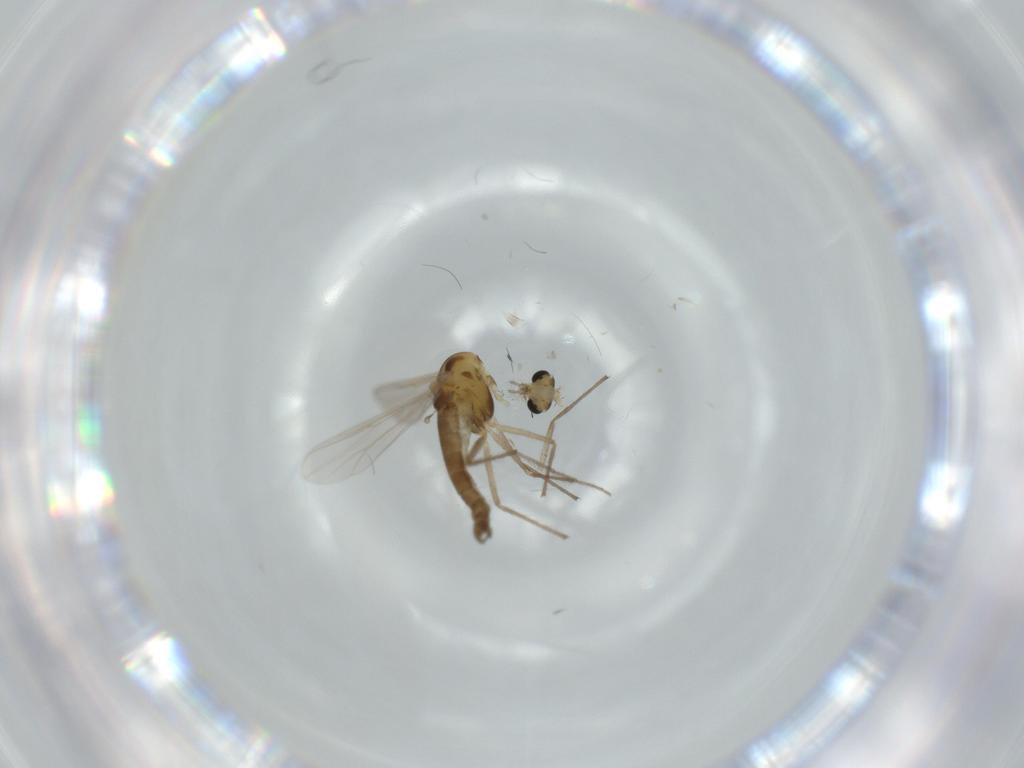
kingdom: Animalia
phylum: Arthropoda
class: Insecta
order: Diptera
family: Chironomidae
